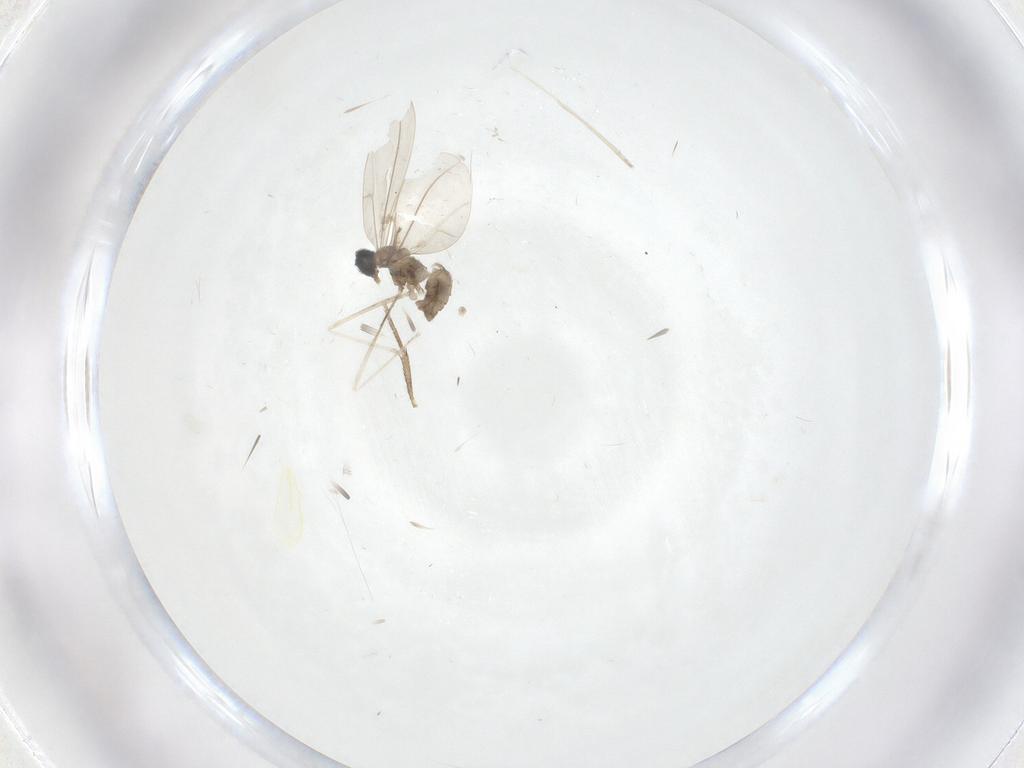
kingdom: Animalia
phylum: Arthropoda
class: Insecta
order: Diptera
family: Cecidomyiidae
